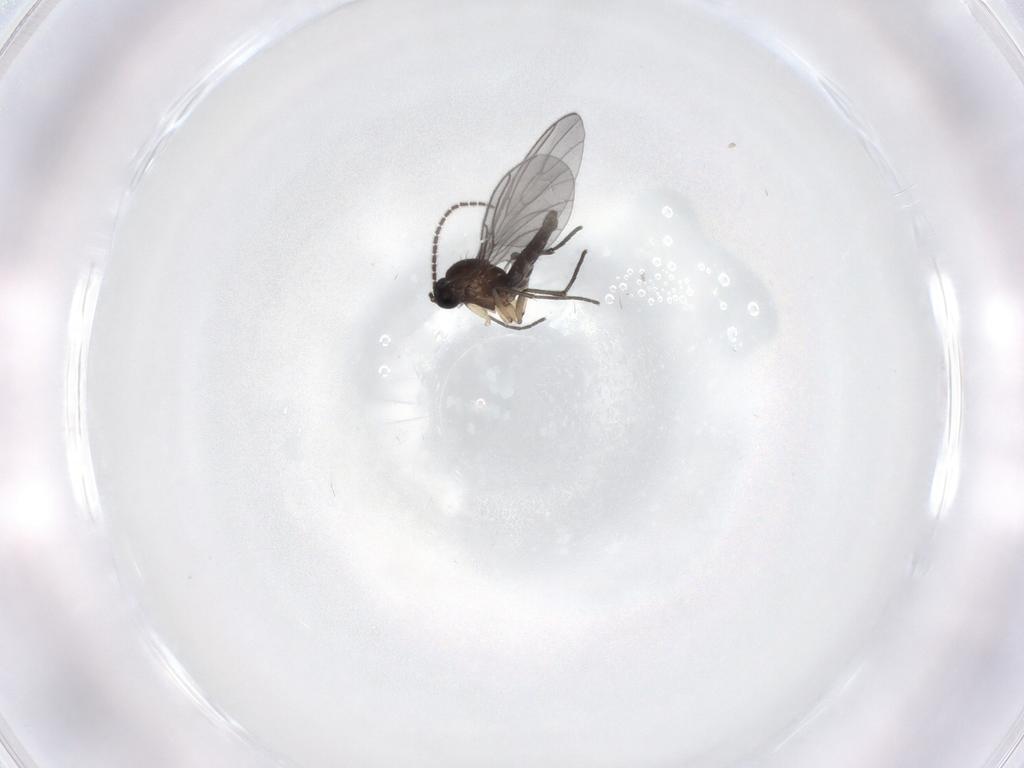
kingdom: Animalia
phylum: Arthropoda
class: Insecta
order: Diptera
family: Sciaridae
